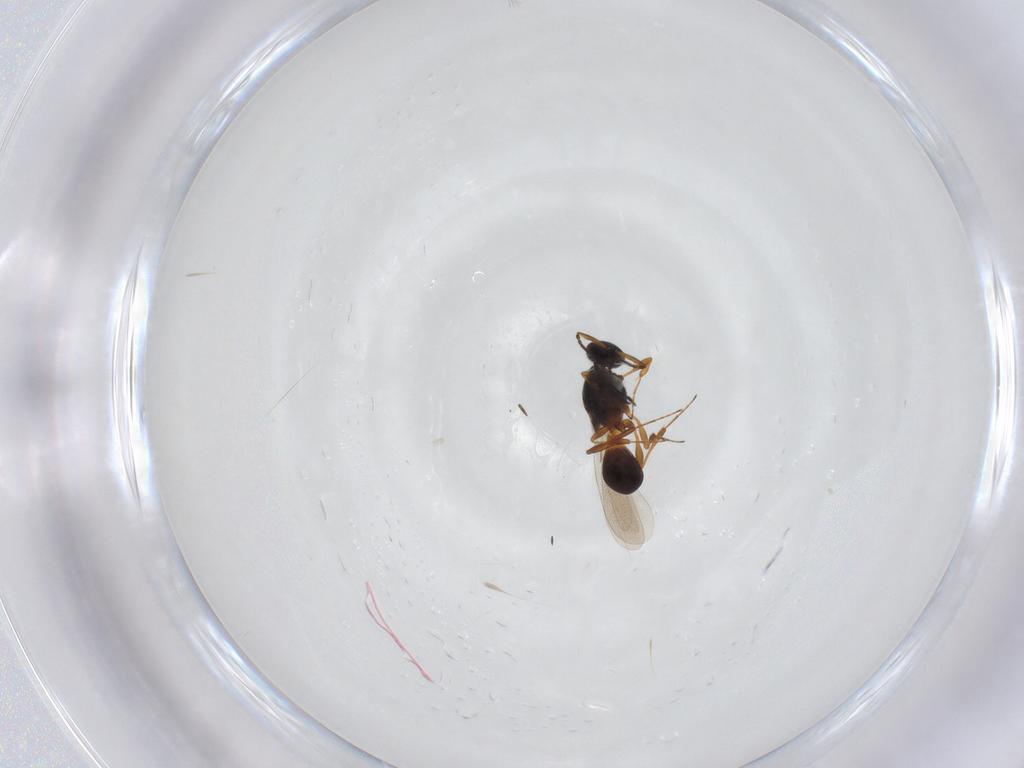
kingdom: Animalia
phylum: Arthropoda
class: Insecta
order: Hymenoptera
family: Platygastridae
